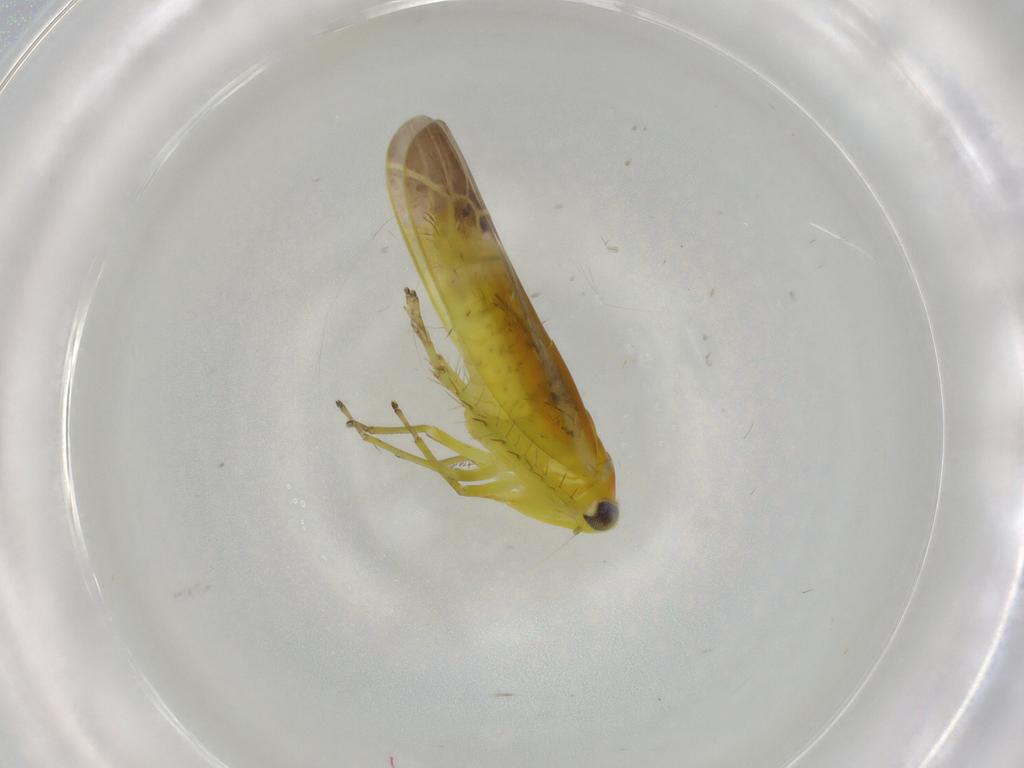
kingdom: Animalia
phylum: Arthropoda
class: Insecta
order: Hemiptera
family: Cicadellidae
